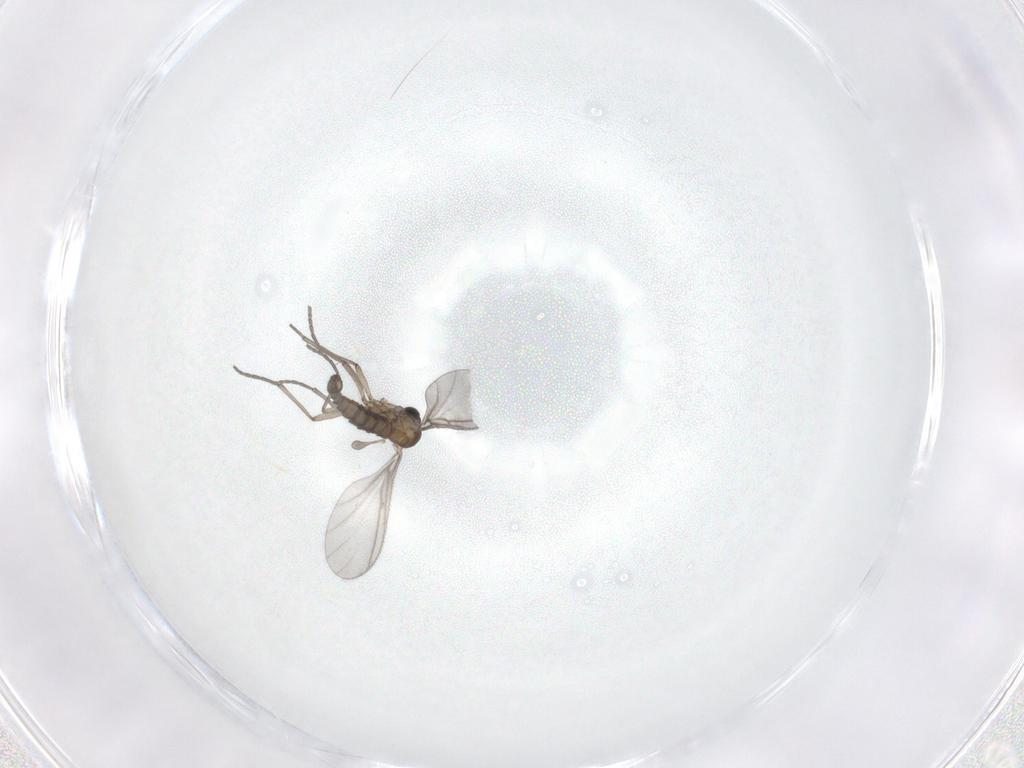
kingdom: Animalia
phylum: Arthropoda
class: Insecta
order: Diptera
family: Sciaridae
